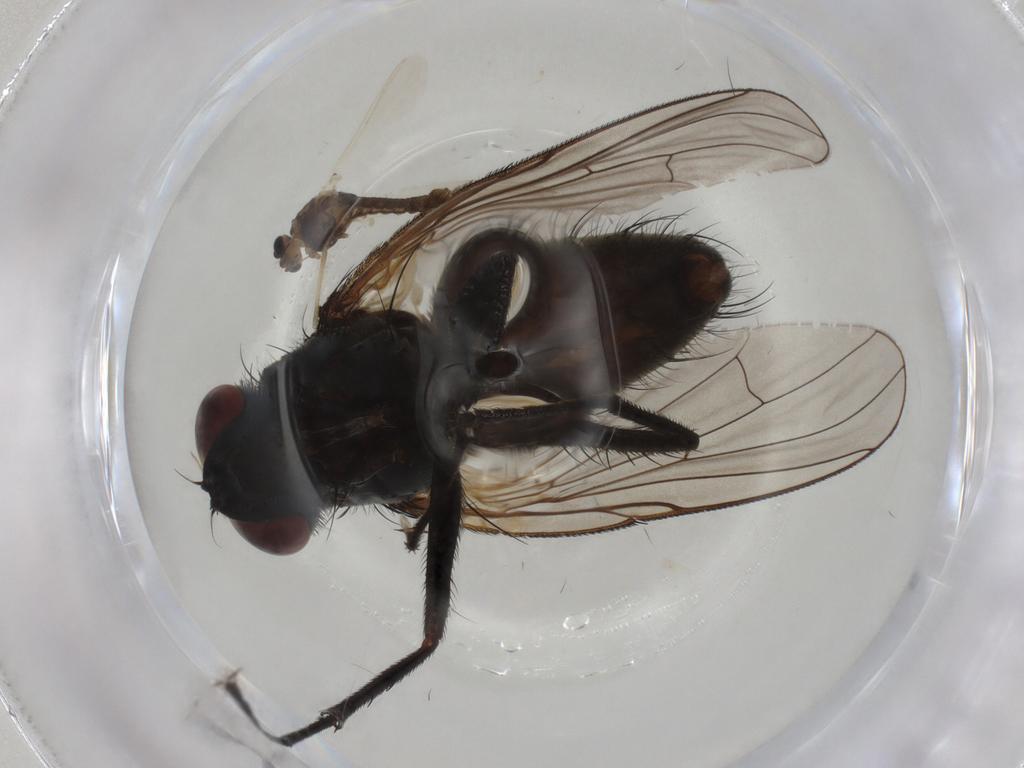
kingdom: Animalia
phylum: Arthropoda
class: Insecta
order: Diptera
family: Muscidae
